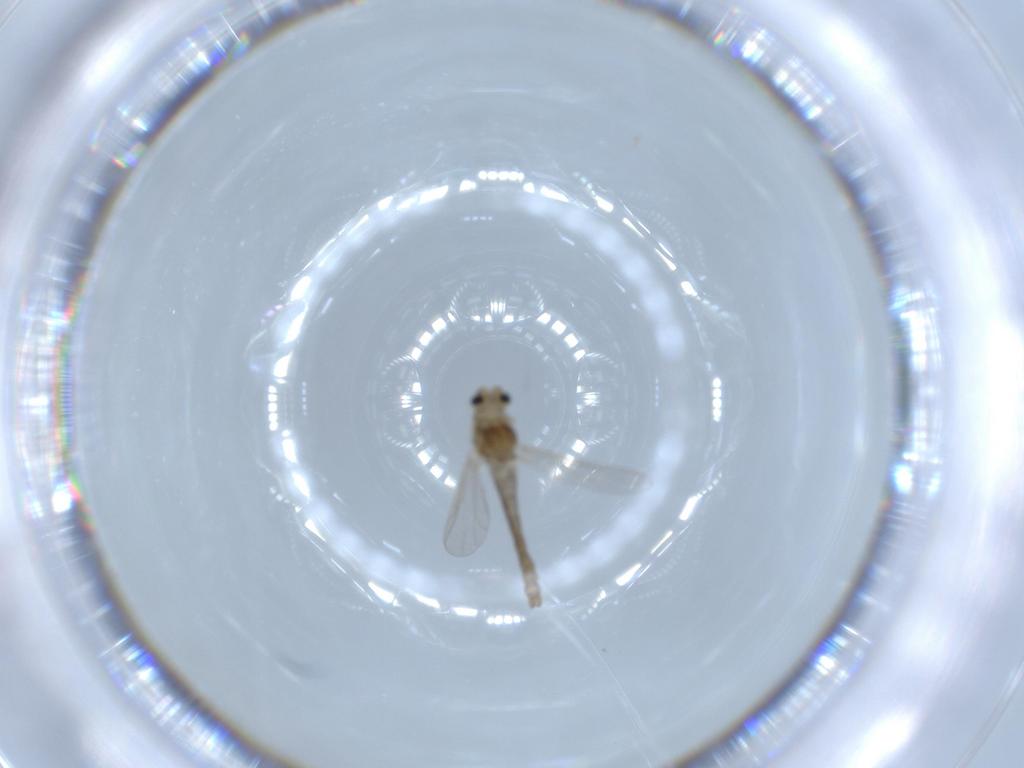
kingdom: Animalia
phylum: Arthropoda
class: Insecta
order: Diptera
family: Chironomidae
